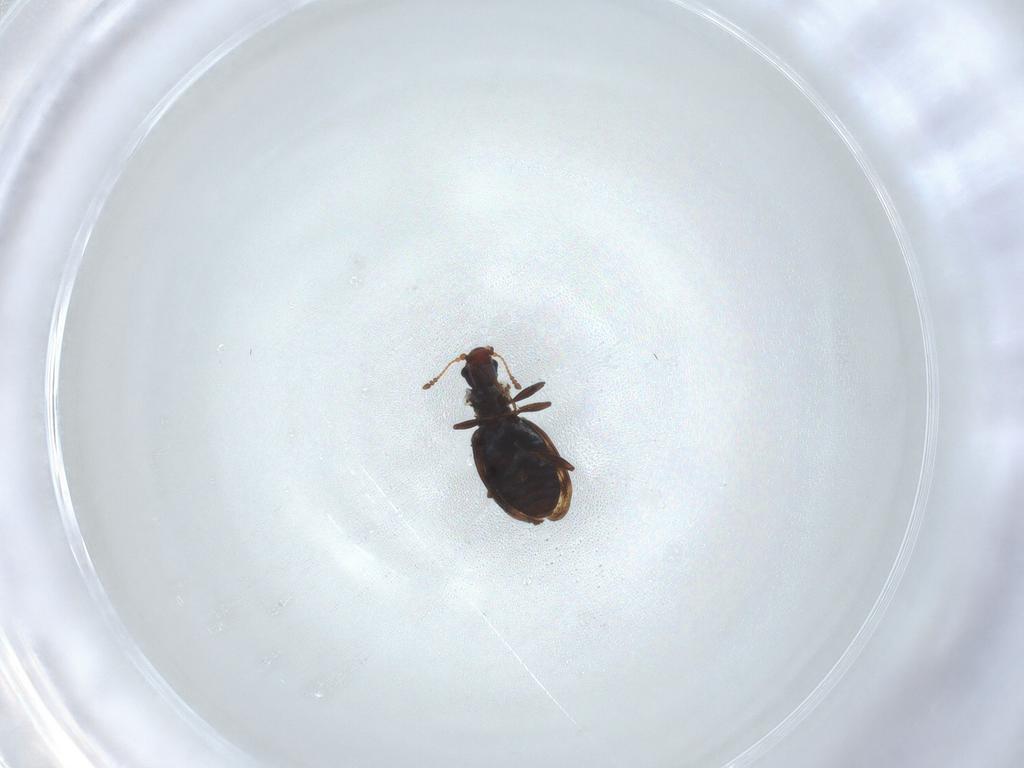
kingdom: Animalia
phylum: Arthropoda
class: Insecta
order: Coleoptera
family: Latridiidae
